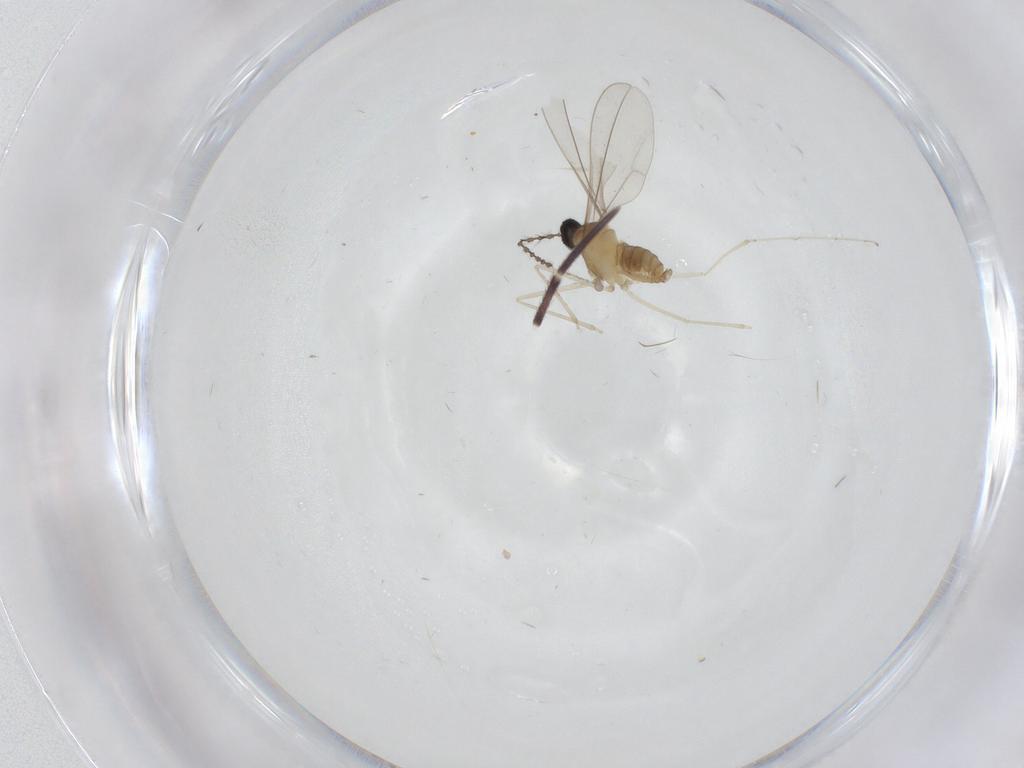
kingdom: Animalia
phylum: Arthropoda
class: Insecta
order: Diptera
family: Cecidomyiidae
